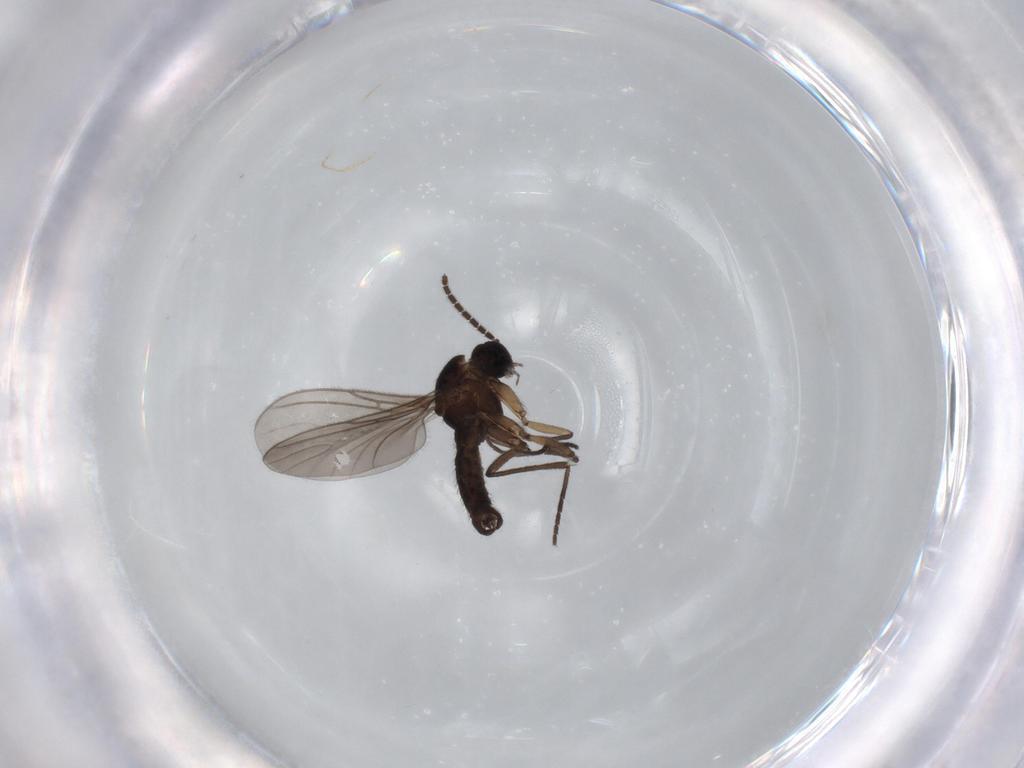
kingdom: Animalia
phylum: Arthropoda
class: Insecta
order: Diptera
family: Sciaridae
